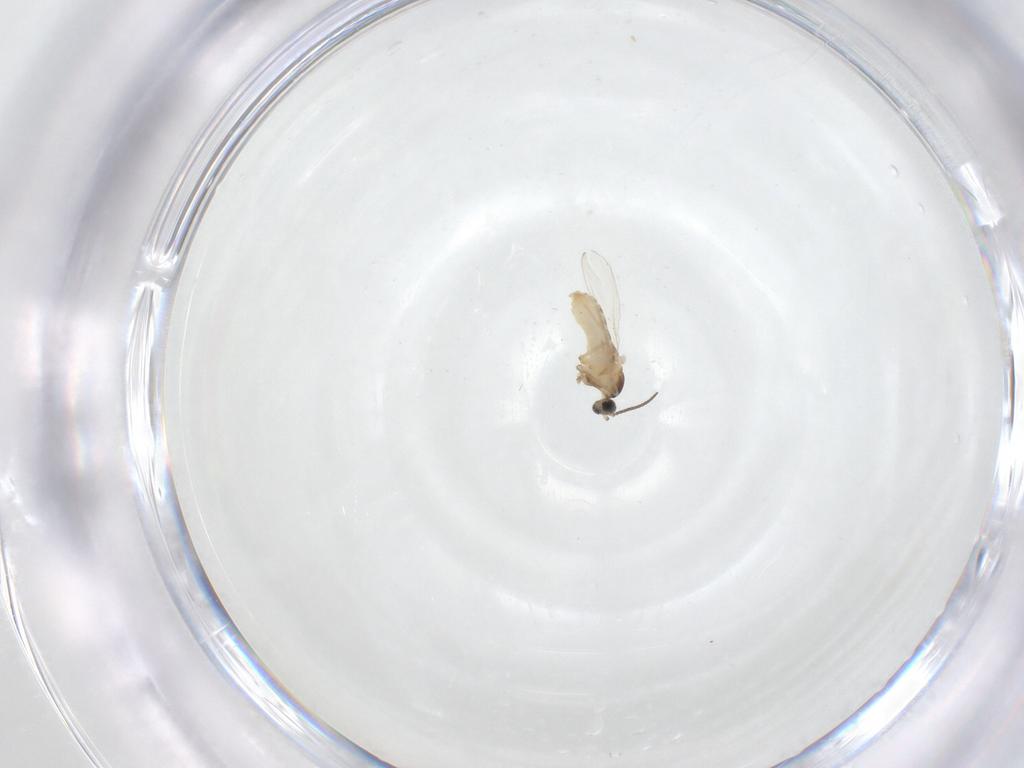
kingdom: Animalia
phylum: Arthropoda
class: Insecta
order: Diptera
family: Cecidomyiidae
